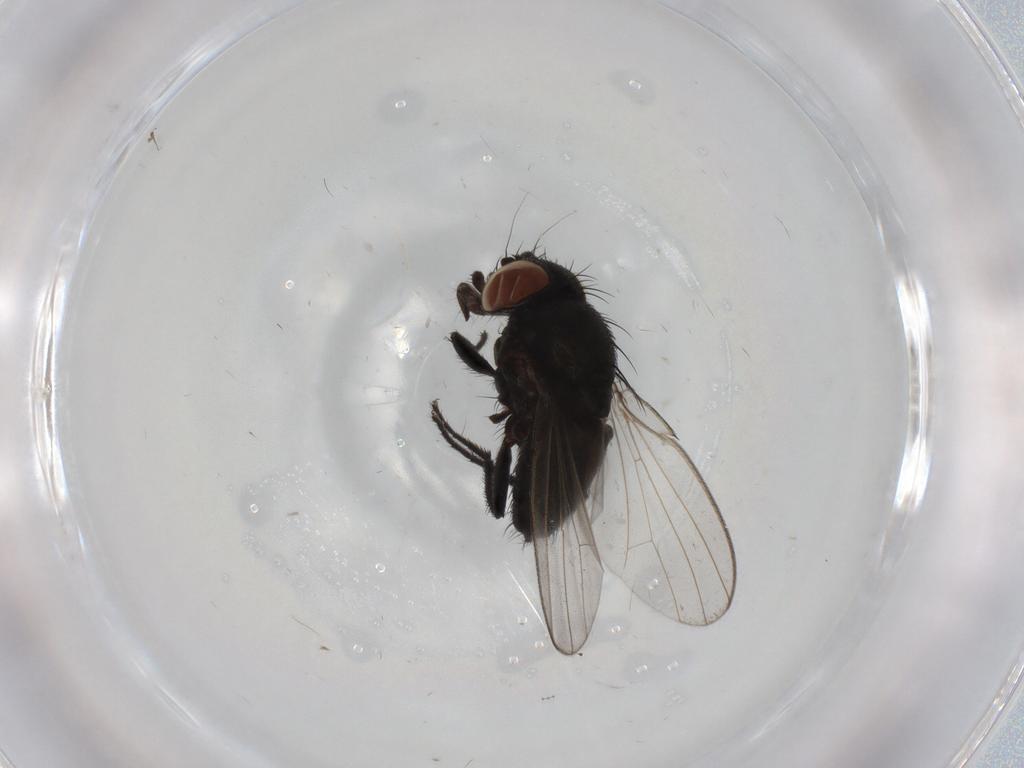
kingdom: Animalia
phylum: Arthropoda
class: Insecta
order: Diptera
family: Milichiidae
